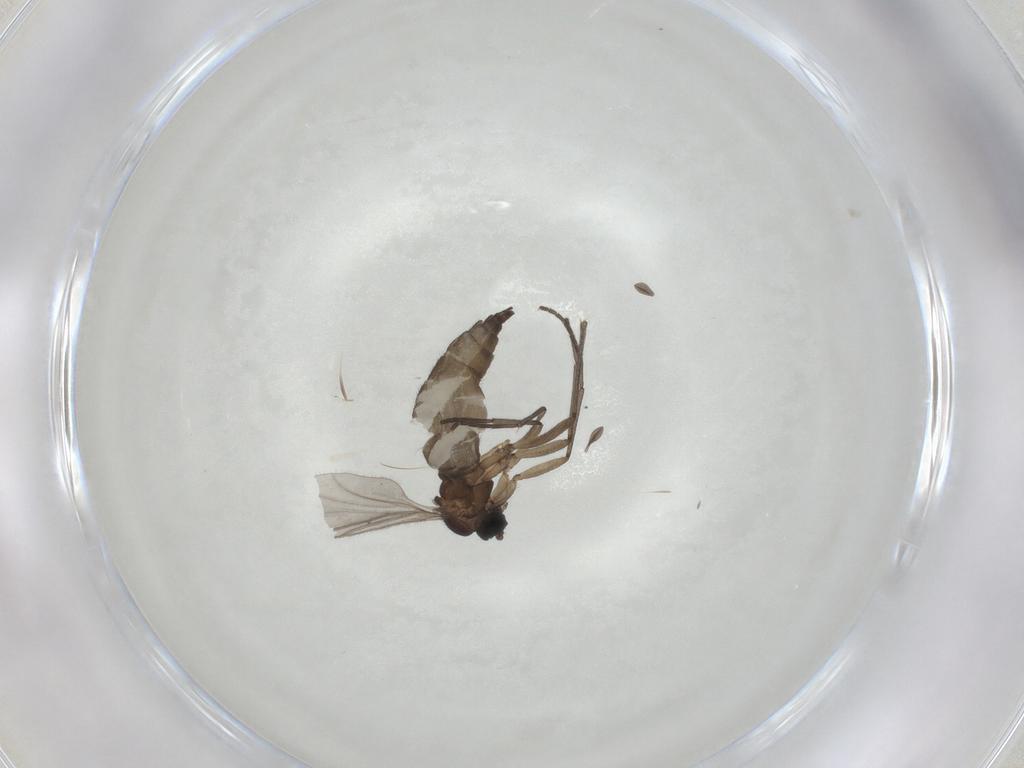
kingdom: Animalia
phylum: Arthropoda
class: Insecta
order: Diptera
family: Sciaridae
